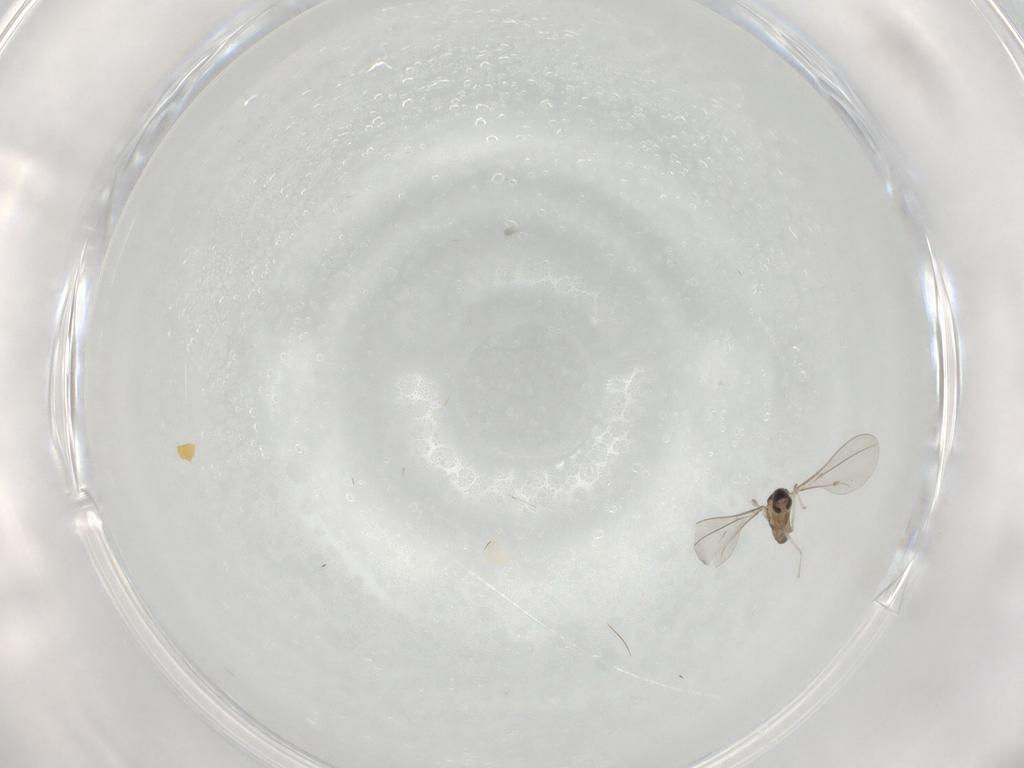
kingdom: Animalia
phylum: Arthropoda
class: Insecta
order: Diptera
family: Cecidomyiidae
